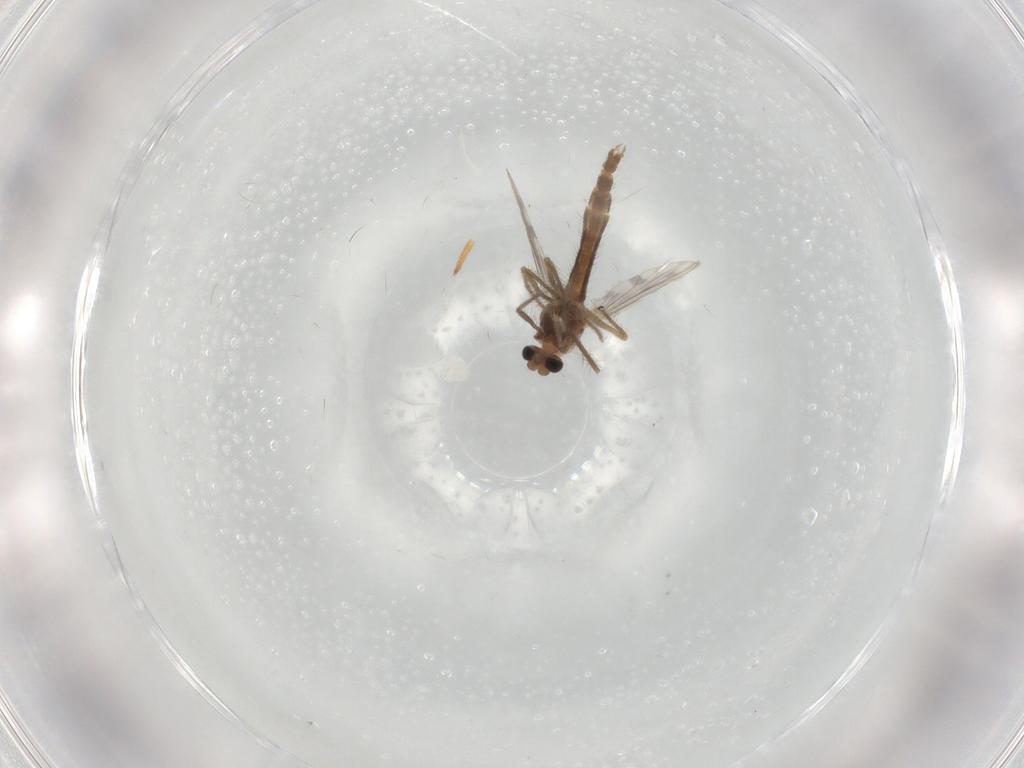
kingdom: Animalia
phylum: Arthropoda
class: Insecta
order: Diptera
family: Chironomidae
